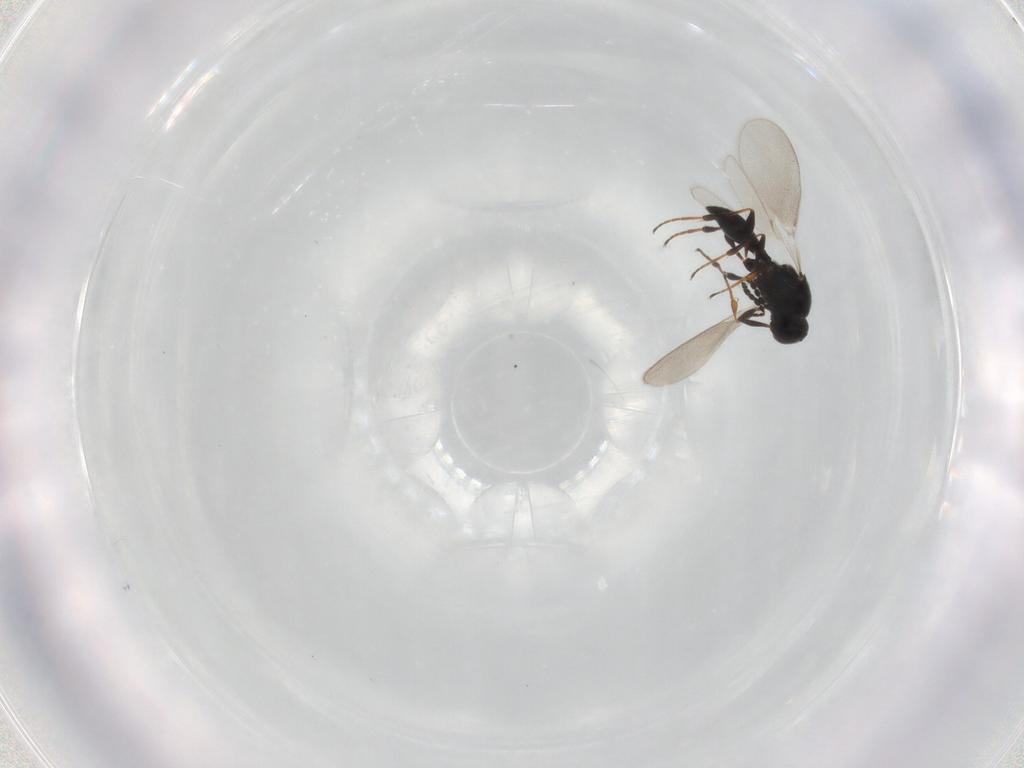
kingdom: Animalia
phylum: Arthropoda
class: Insecta
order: Hymenoptera
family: Platygastridae
